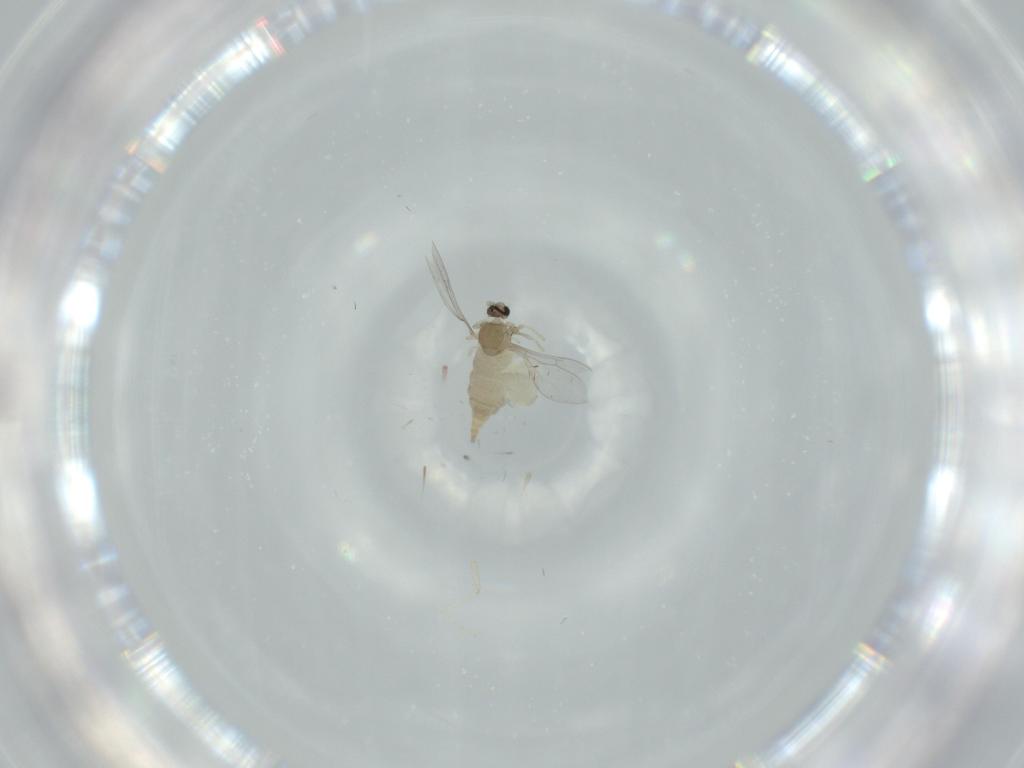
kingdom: Animalia
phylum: Arthropoda
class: Insecta
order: Diptera
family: Cecidomyiidae
